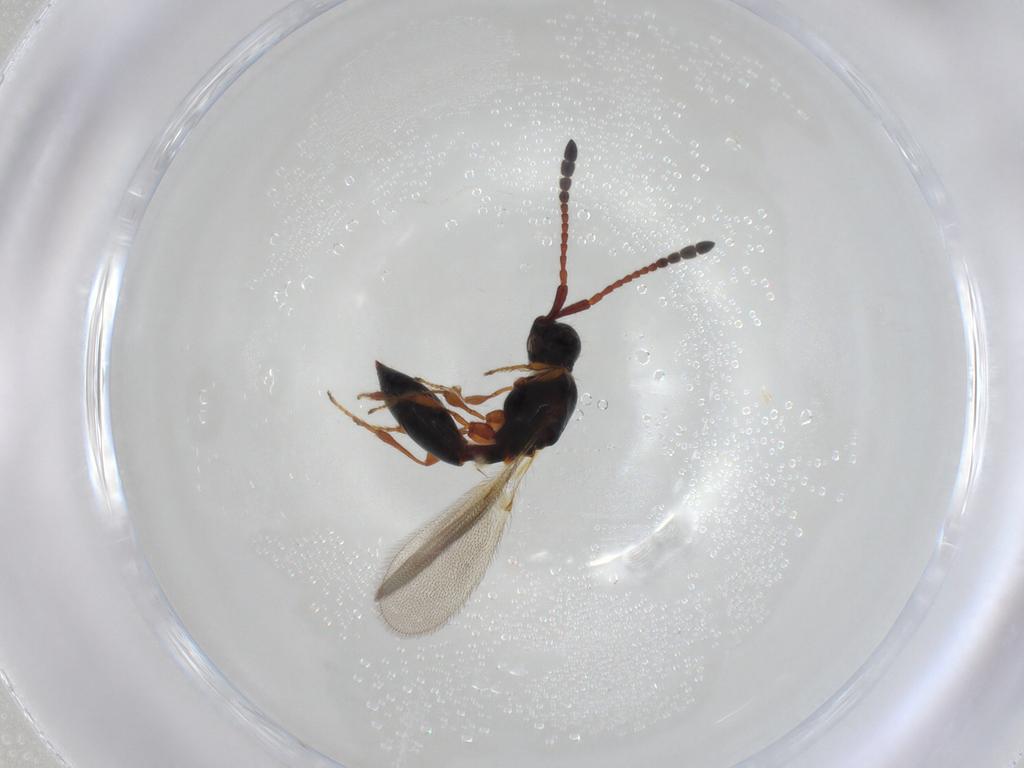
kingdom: Animalia
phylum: Arthropoda
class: Insecta
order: Hymenoptera
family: Diapriidae
